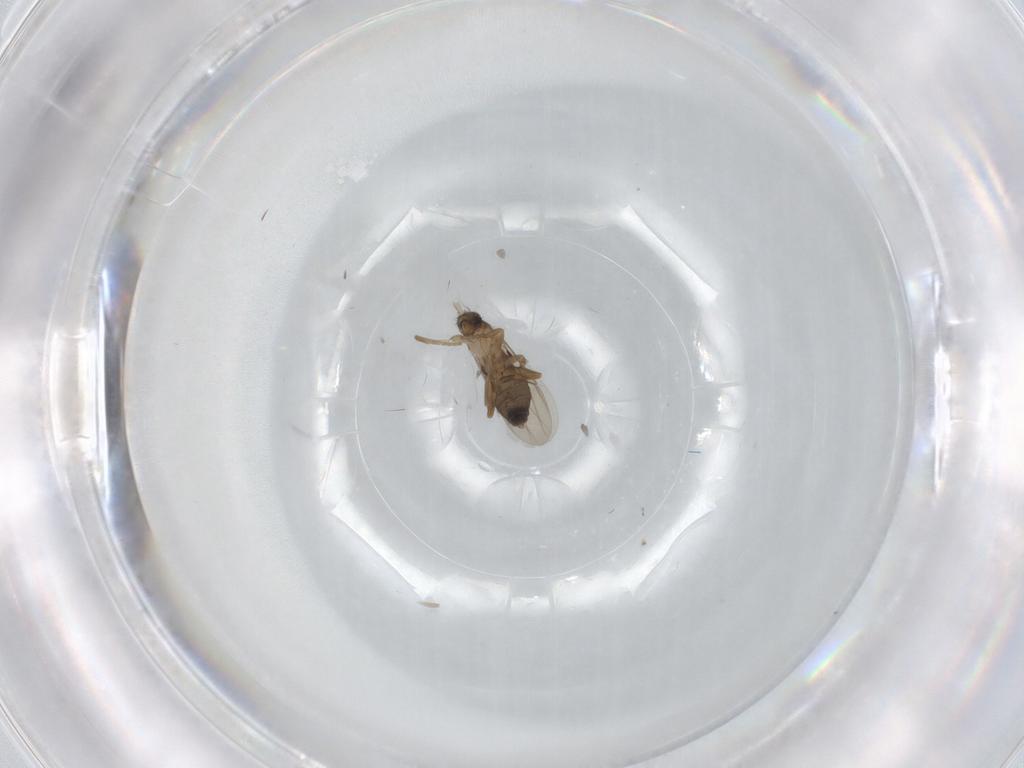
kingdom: Animalia
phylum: Arthropoda
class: Insecta
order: Diptera
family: Phoridae
